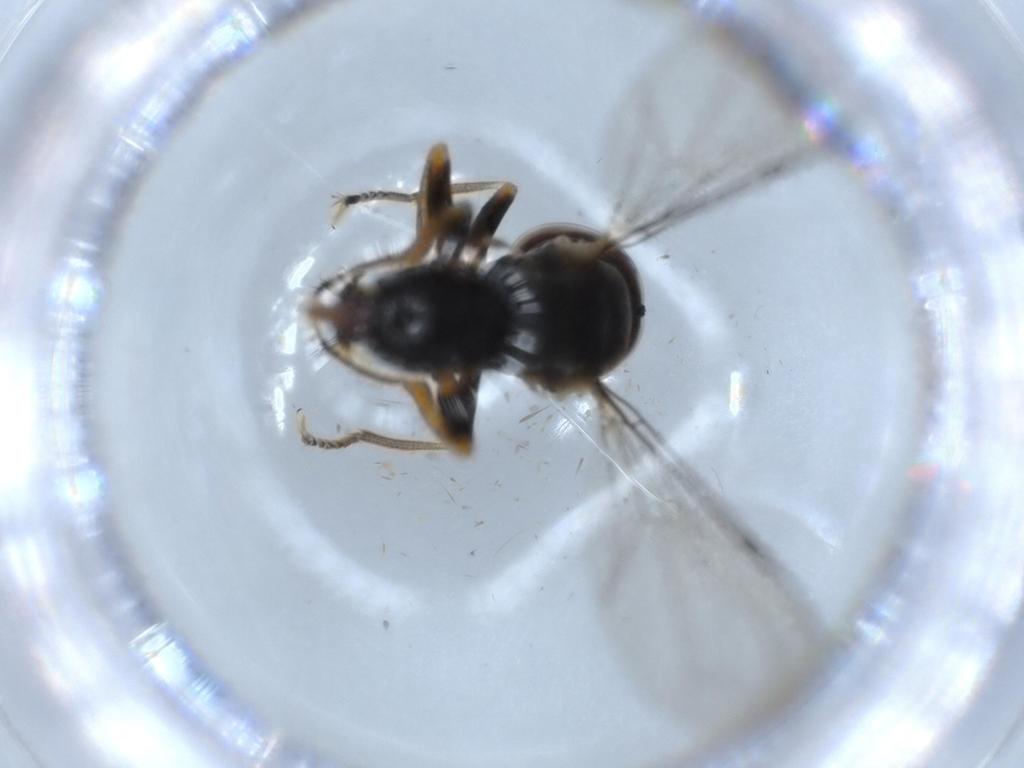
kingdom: Animalia
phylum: Arthropoda
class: Insecta
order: Diptera
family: Pipunculidae
